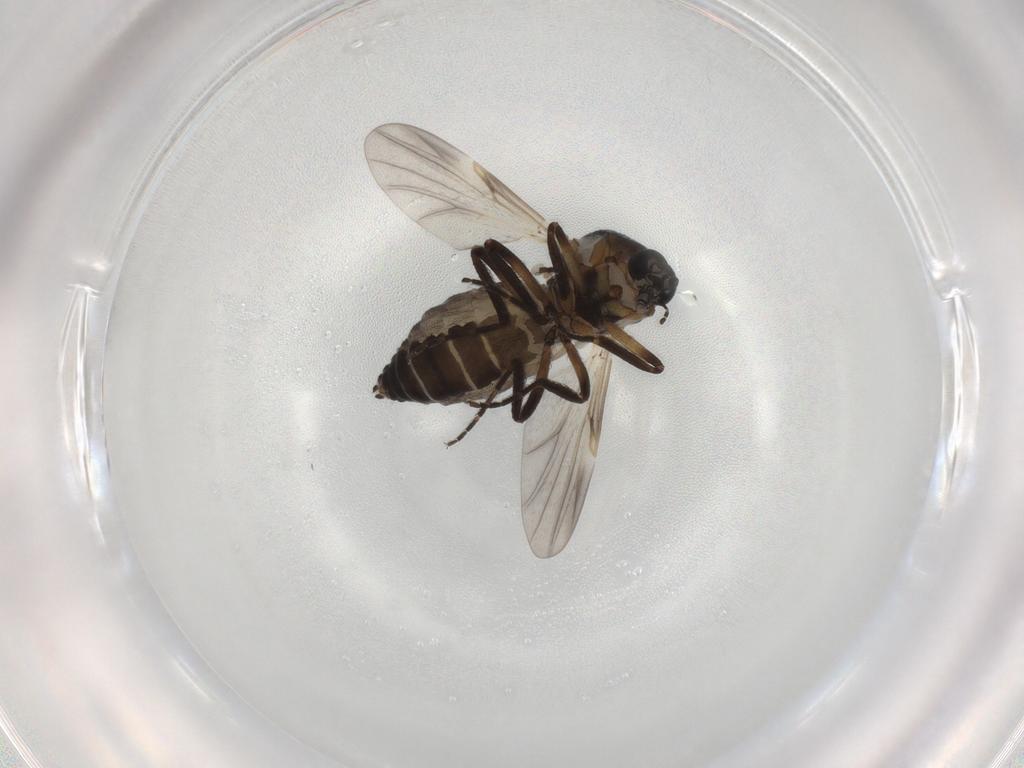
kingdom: Animalia
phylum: Arthropoda
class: Insecta
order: Diptera
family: Ceratopogonidae
